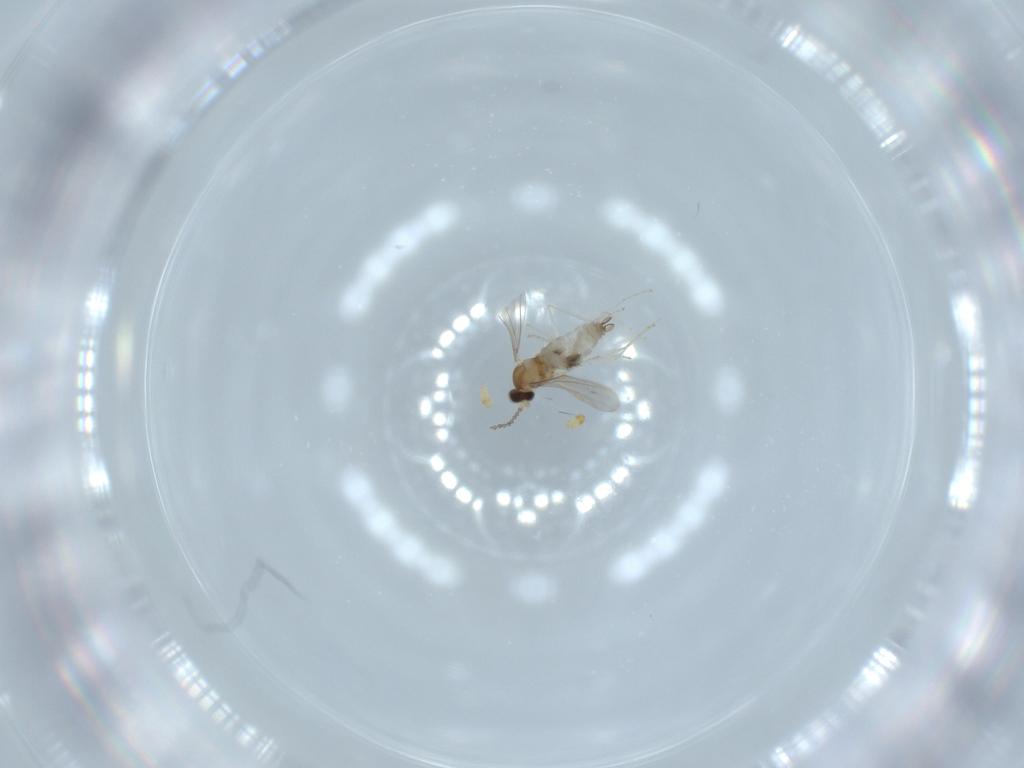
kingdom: Animalia
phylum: Arthropoda
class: Insecta
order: Diptera
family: Cecidomyiidae
